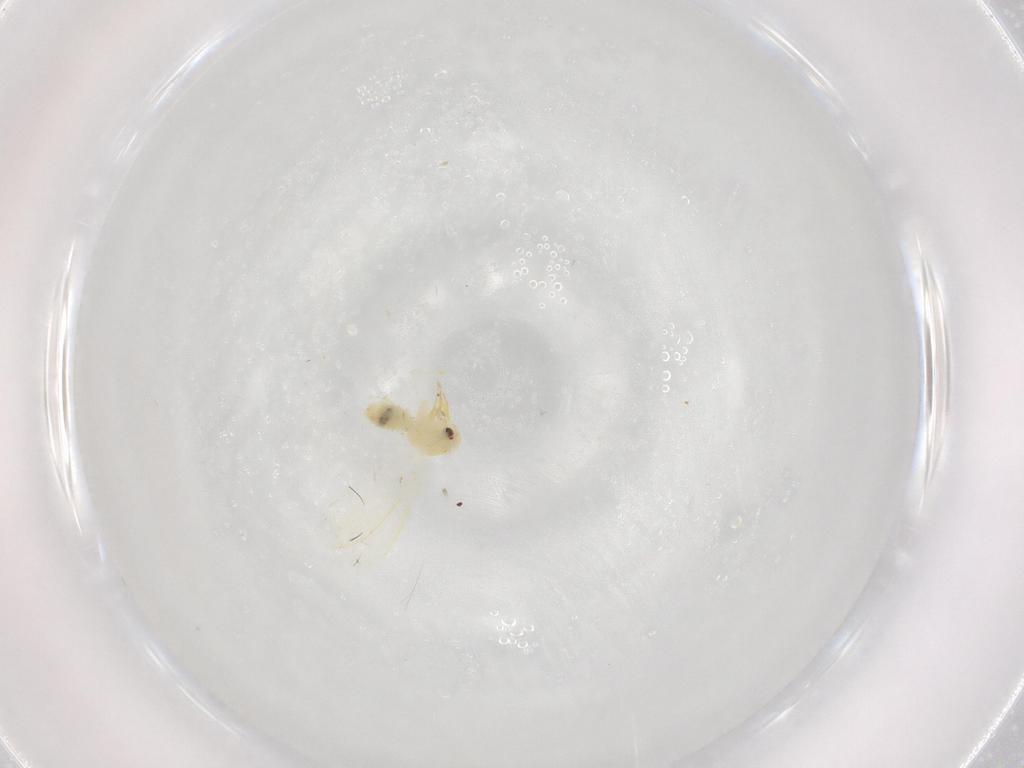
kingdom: Animalia
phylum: Arthropoda
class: Insecta
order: Hemiptera
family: Aleyrodidae
